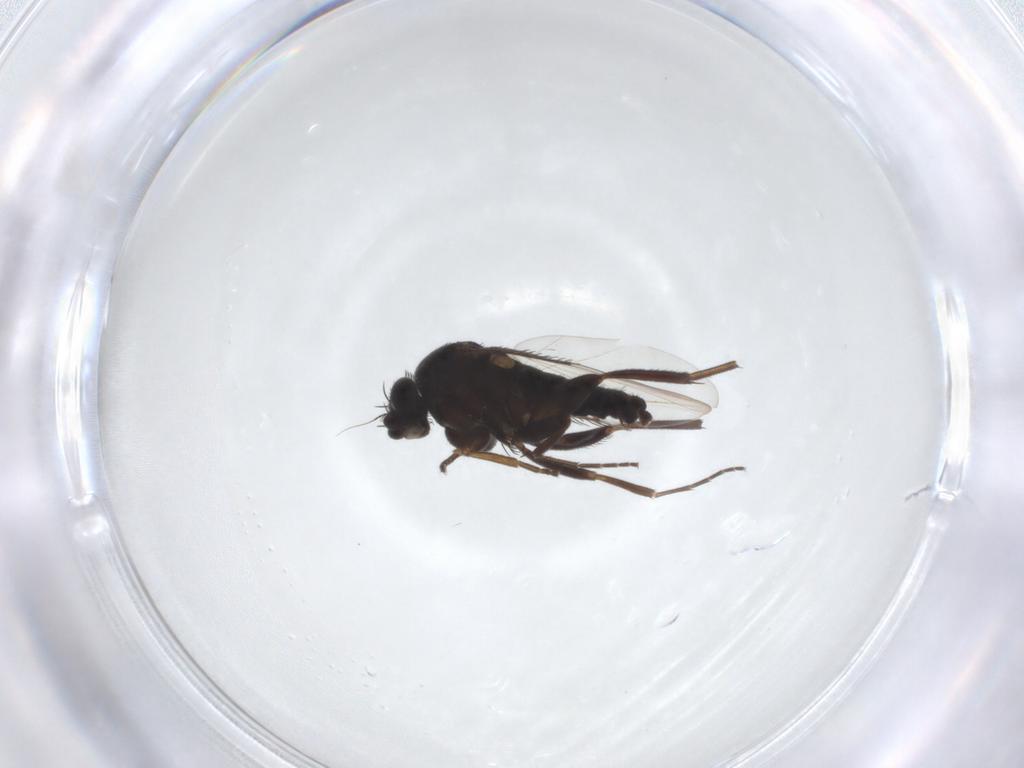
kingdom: Animalia
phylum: Arthropoda
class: Insecta
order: Diptera
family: Phoridae
